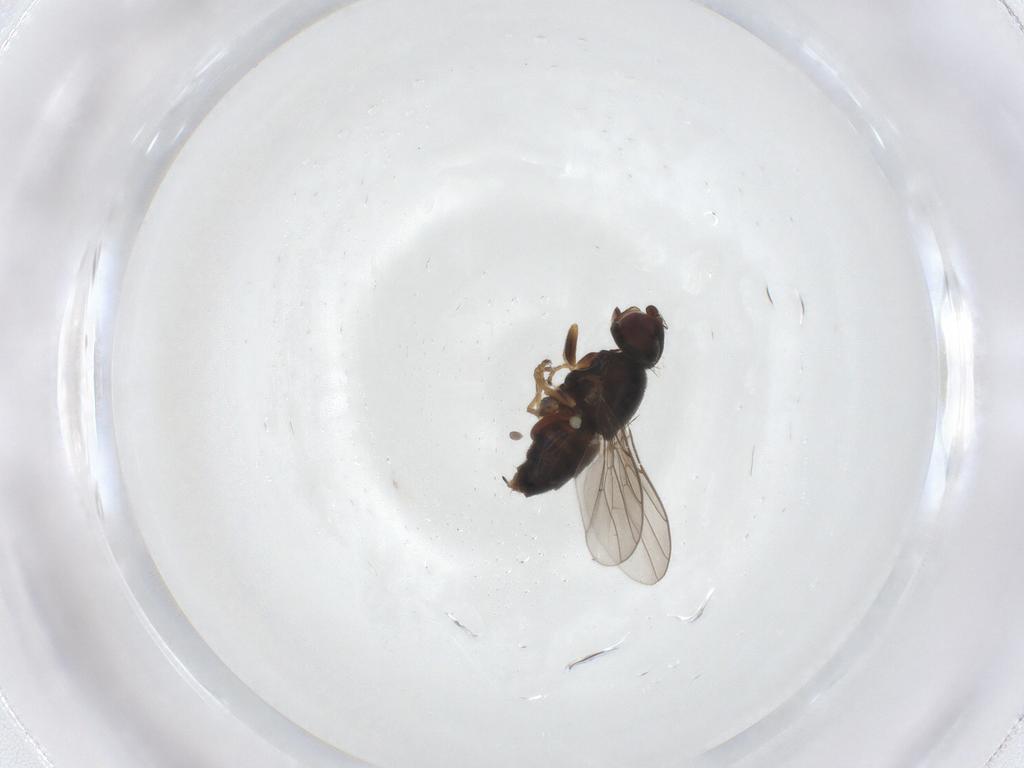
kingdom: Animalia
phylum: Arthropoda
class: Insecta
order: Diptera
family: Chloropidae
